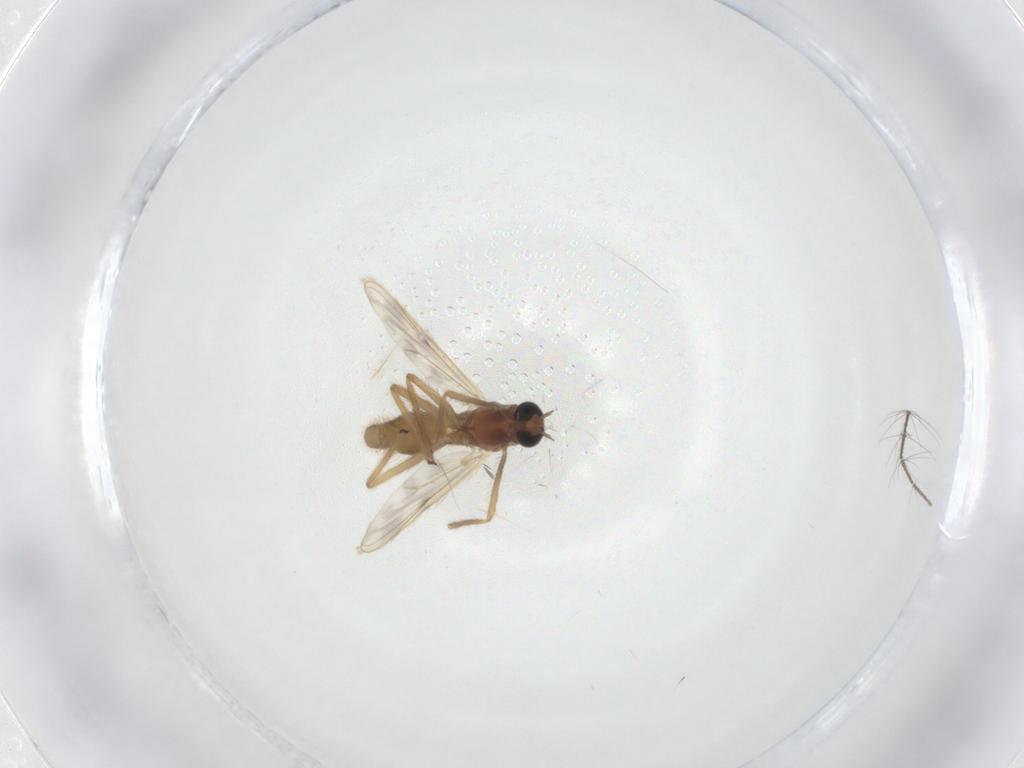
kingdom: Animalia
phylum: Arthropoda
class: Insecta
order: Diptera
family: Chironomidae
